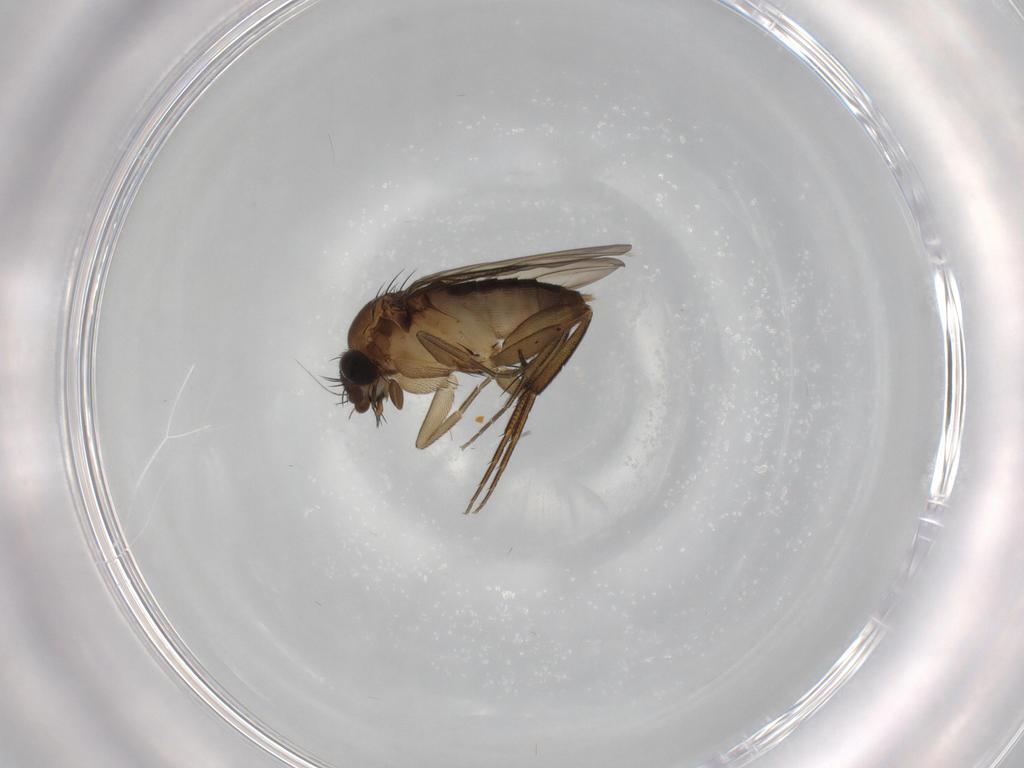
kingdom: Animalia
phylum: Arthropoda
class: Insecta
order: Diptera
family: Phoridae
